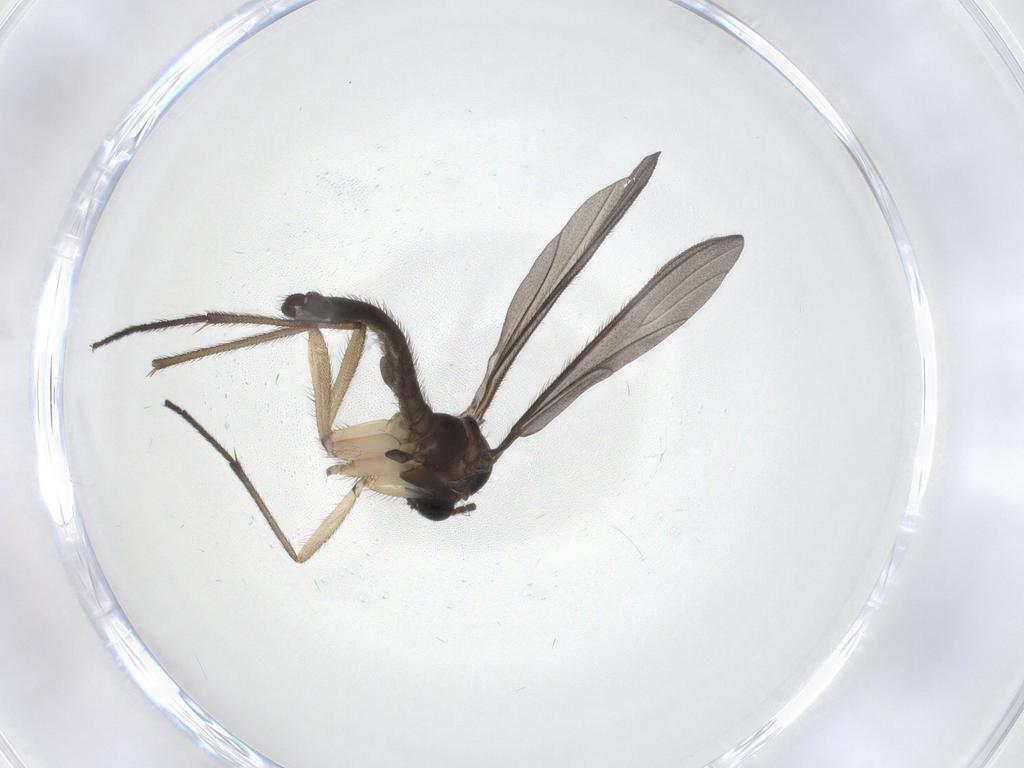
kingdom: Animalia
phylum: Arthropoda
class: Insecta
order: Diptera
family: Sciaridae
